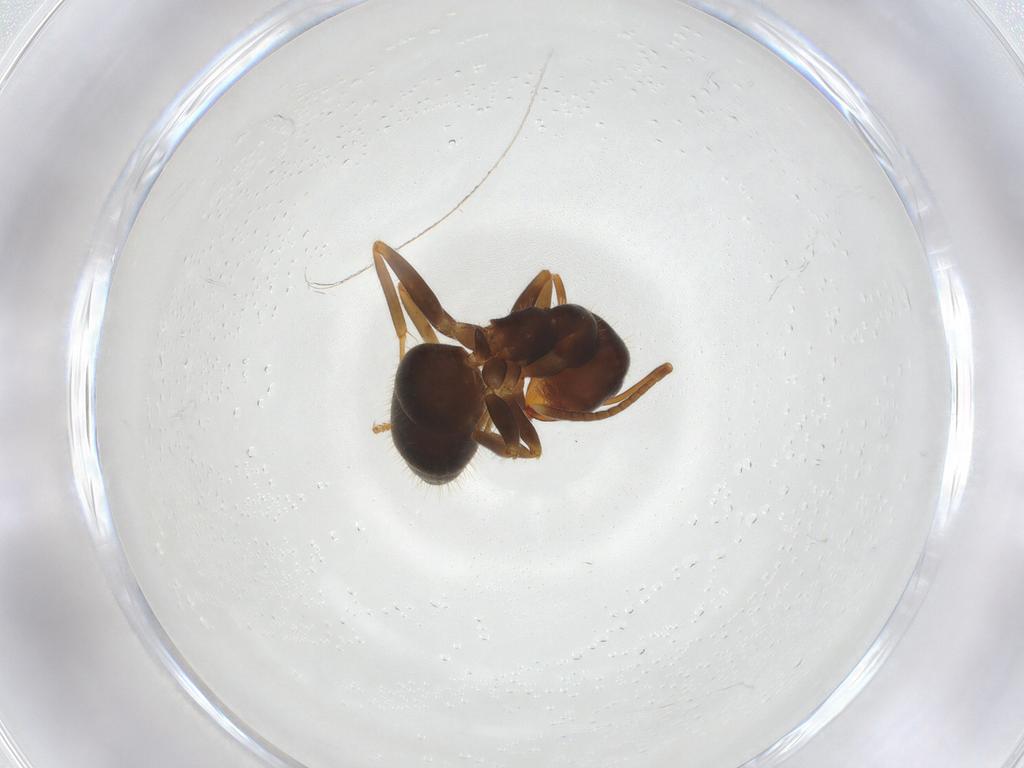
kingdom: Animalia
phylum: Arthropoda
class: Insecta
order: Hymenoptera
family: Formicidae
